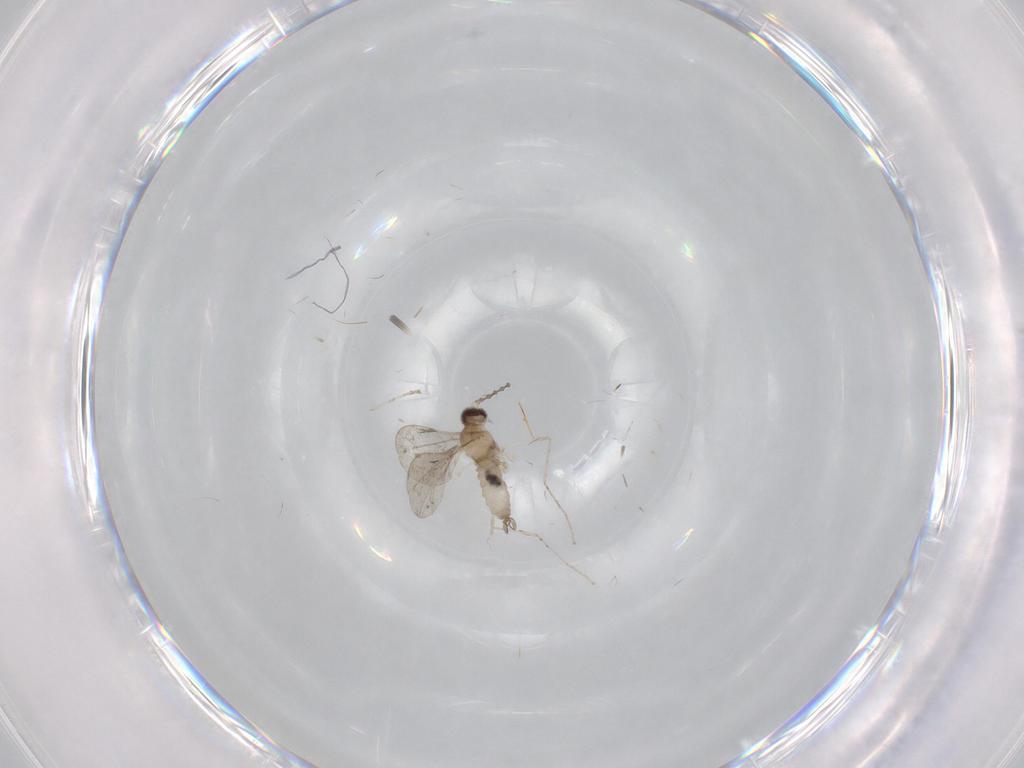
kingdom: Animalia
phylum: Arthropoda
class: Insecta
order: Diptera
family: Cecidomyiidae
